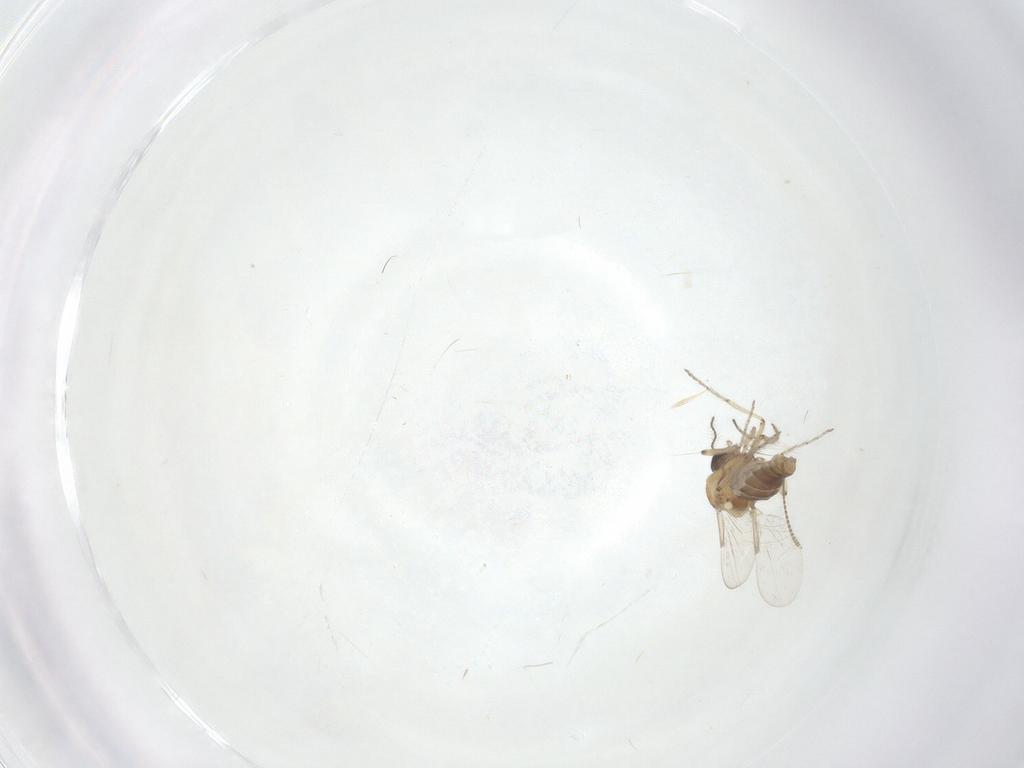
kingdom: Animalia
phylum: Arthropoda
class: Insecta
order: Diptera
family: Ceratopogonidae
